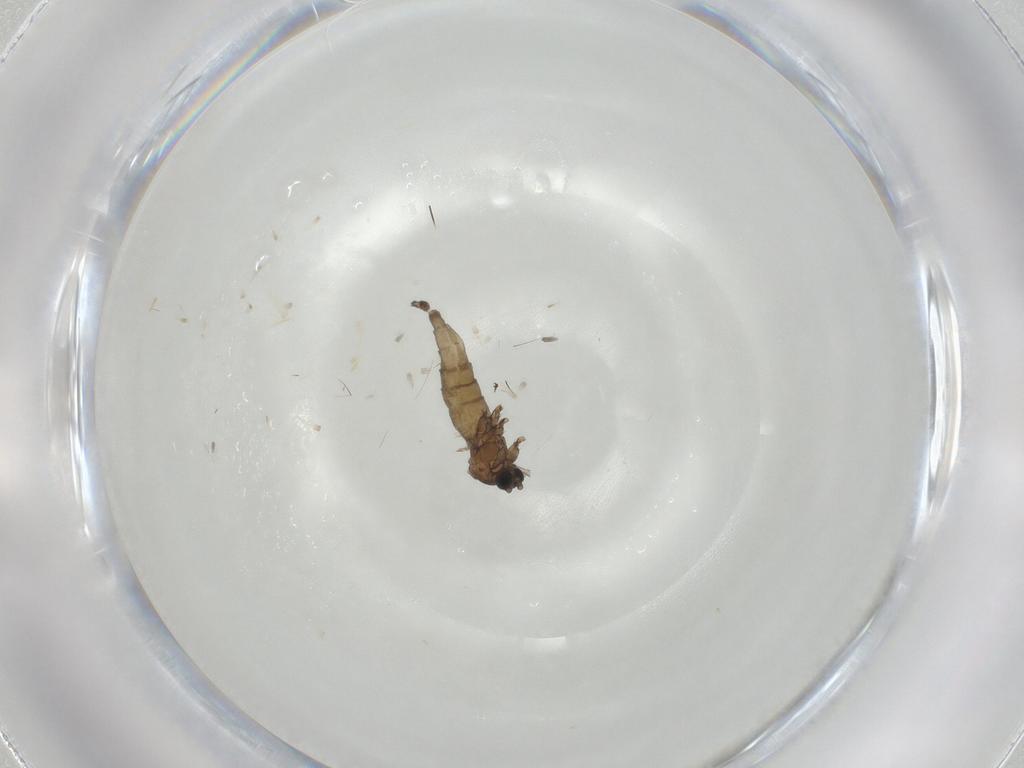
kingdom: Animalia
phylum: Arthropoda
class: Insecta
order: Diptera
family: Sciaridae
